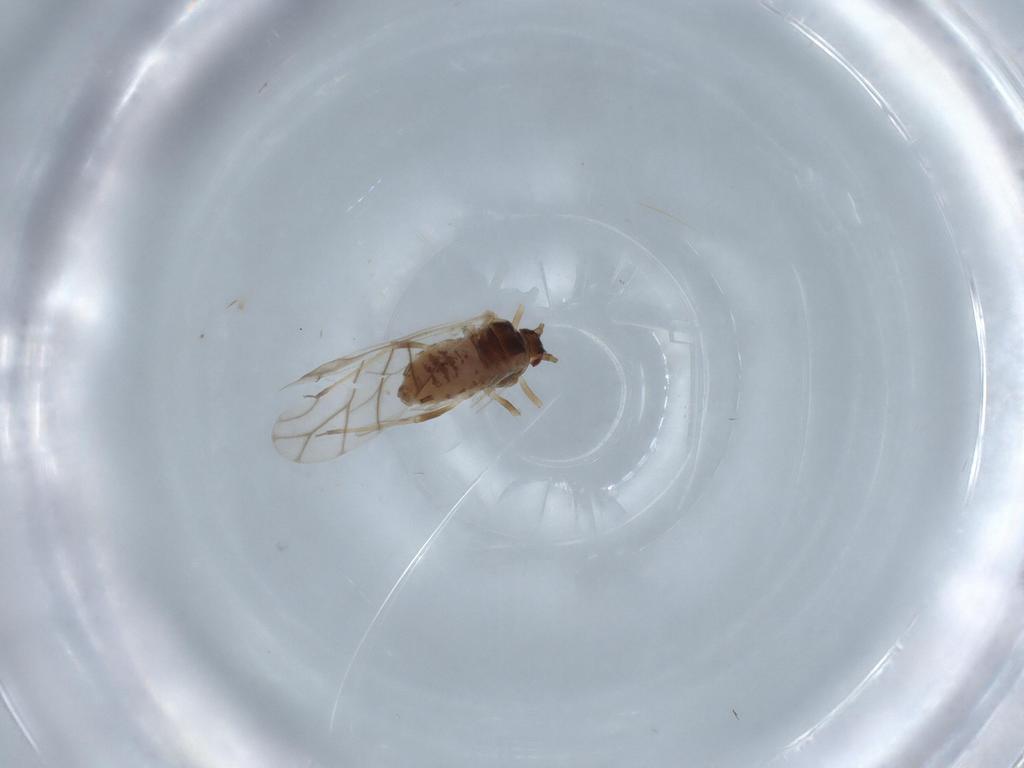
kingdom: Animalia
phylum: Arthropoda
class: Insecta
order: Hemiptera
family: Aphididae
